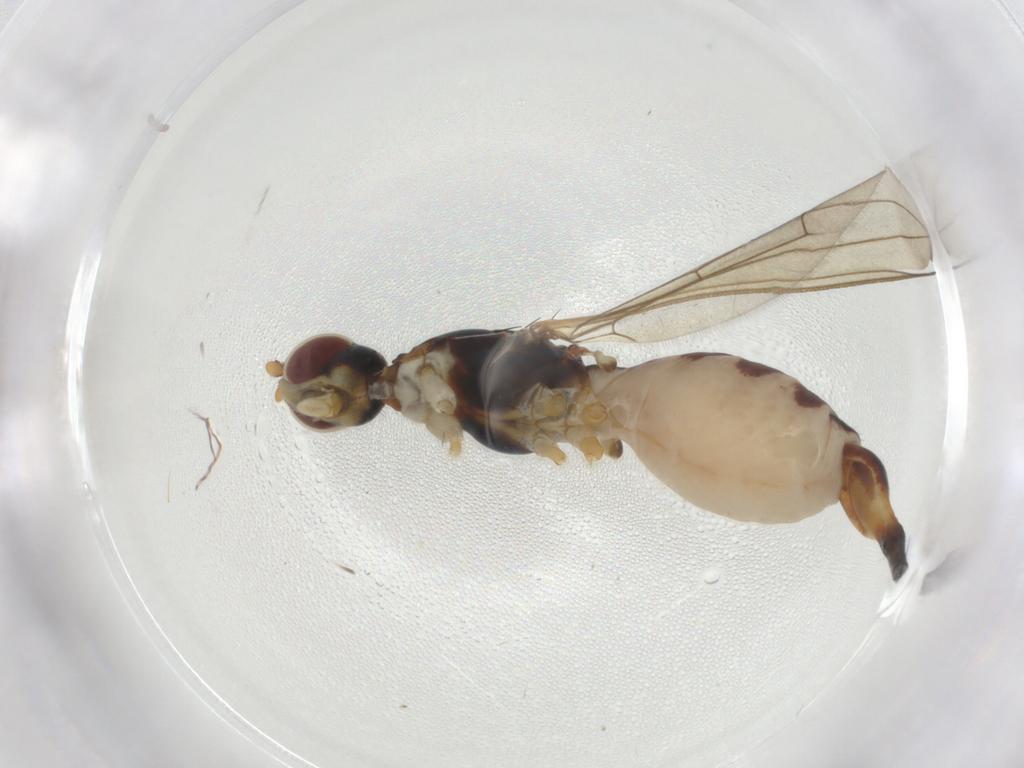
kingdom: Animalia
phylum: Arthropoda
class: Insecta
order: Diptera
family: Micropezidae
